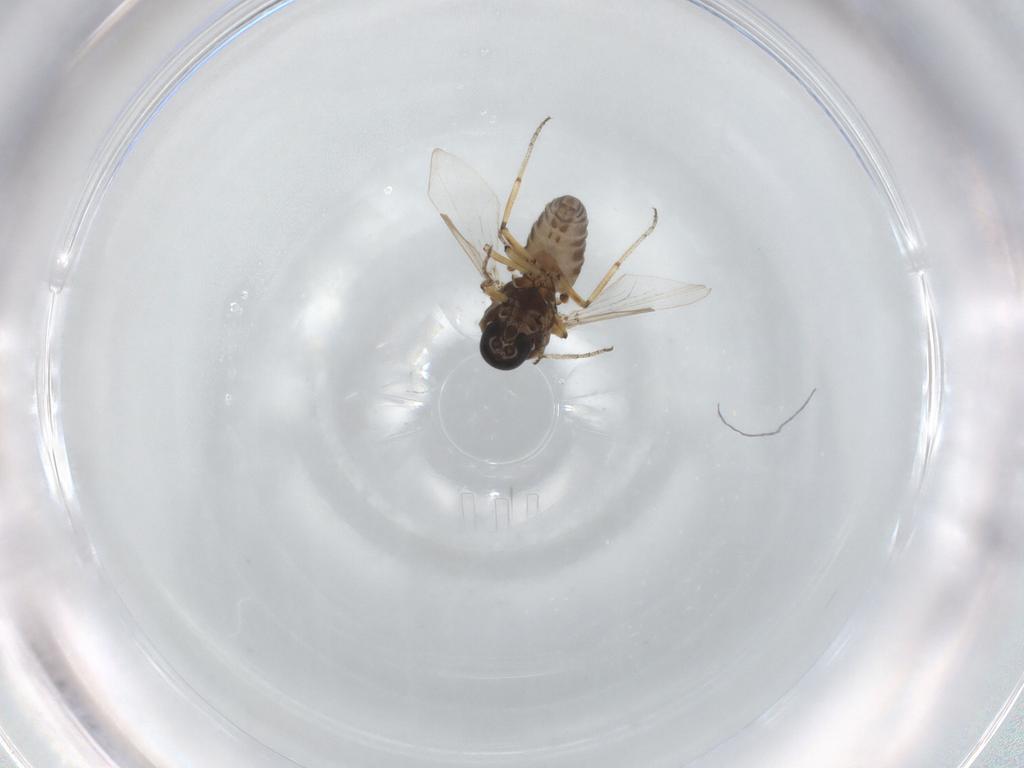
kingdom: Animalia
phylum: Arthropoda
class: Insecta
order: Diptera
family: Ceratopogonidae
